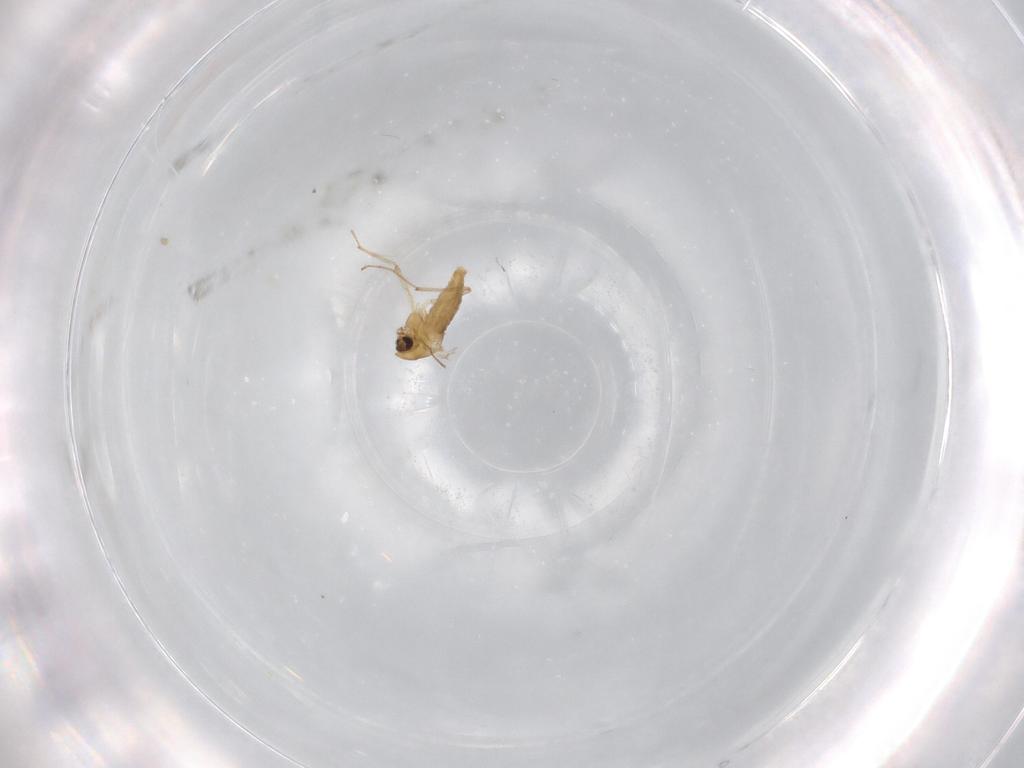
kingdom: Animalia
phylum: Arthropoda
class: Insecta
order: Diptera
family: Chironomidae
